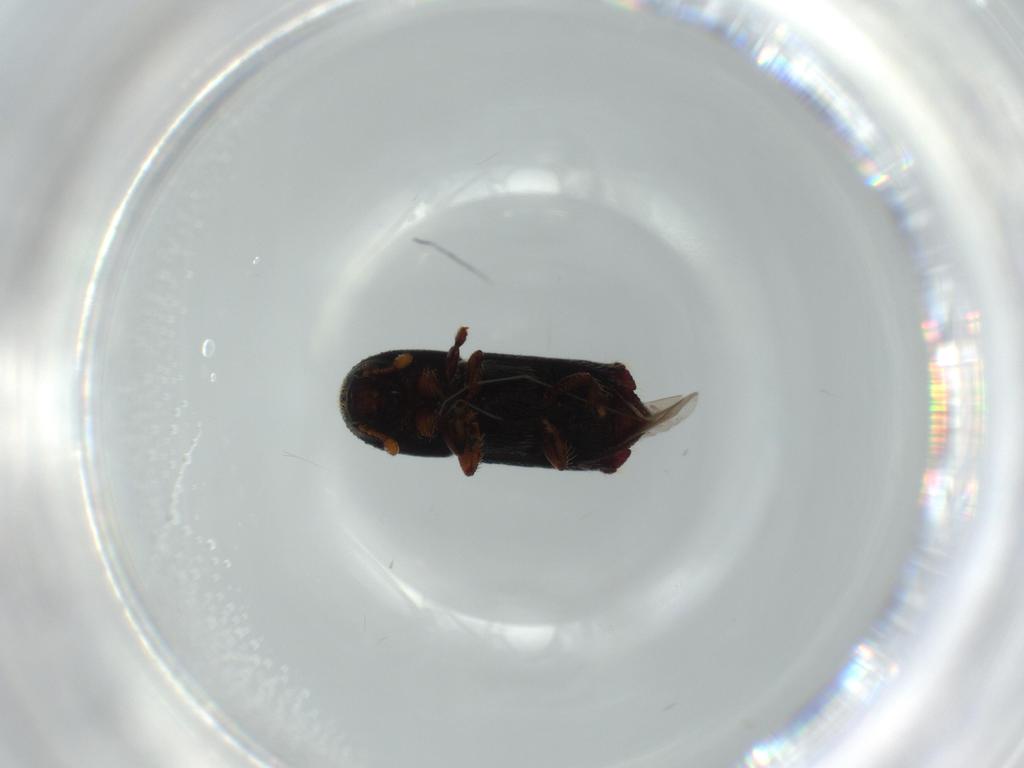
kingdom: Animalia
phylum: Arthropoda
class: Insecta
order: Coleoptera
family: Curculionidae
